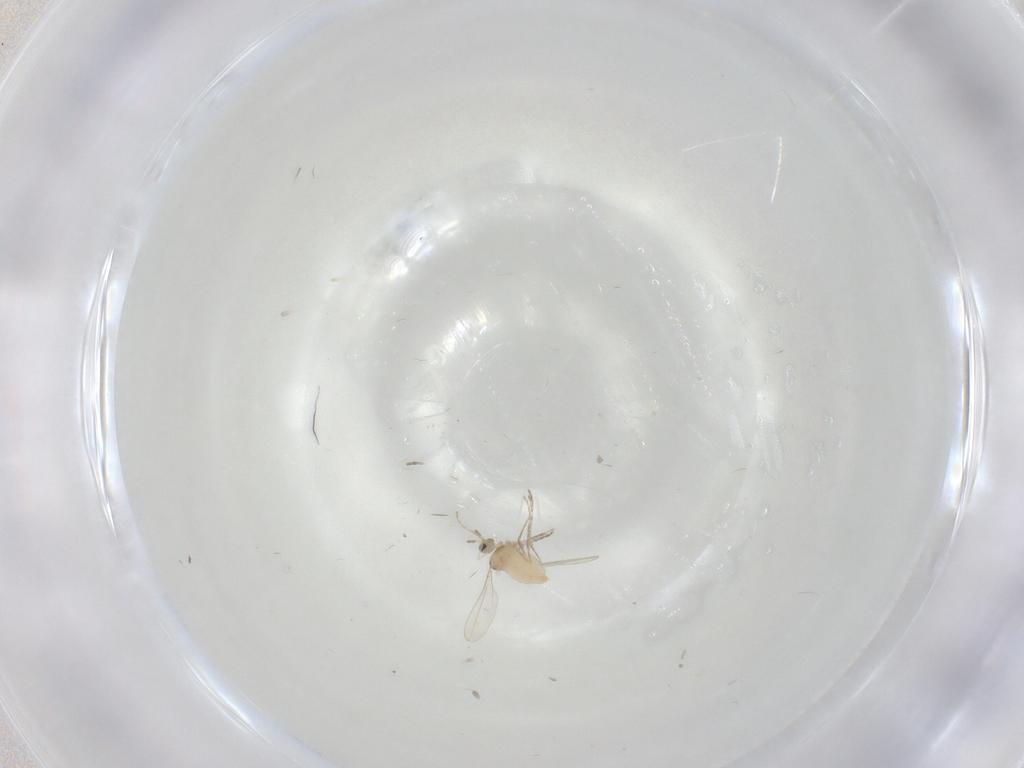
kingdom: Animalia
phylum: Arthropoda
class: Insecta
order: Diptera
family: Cecidomyiidae
